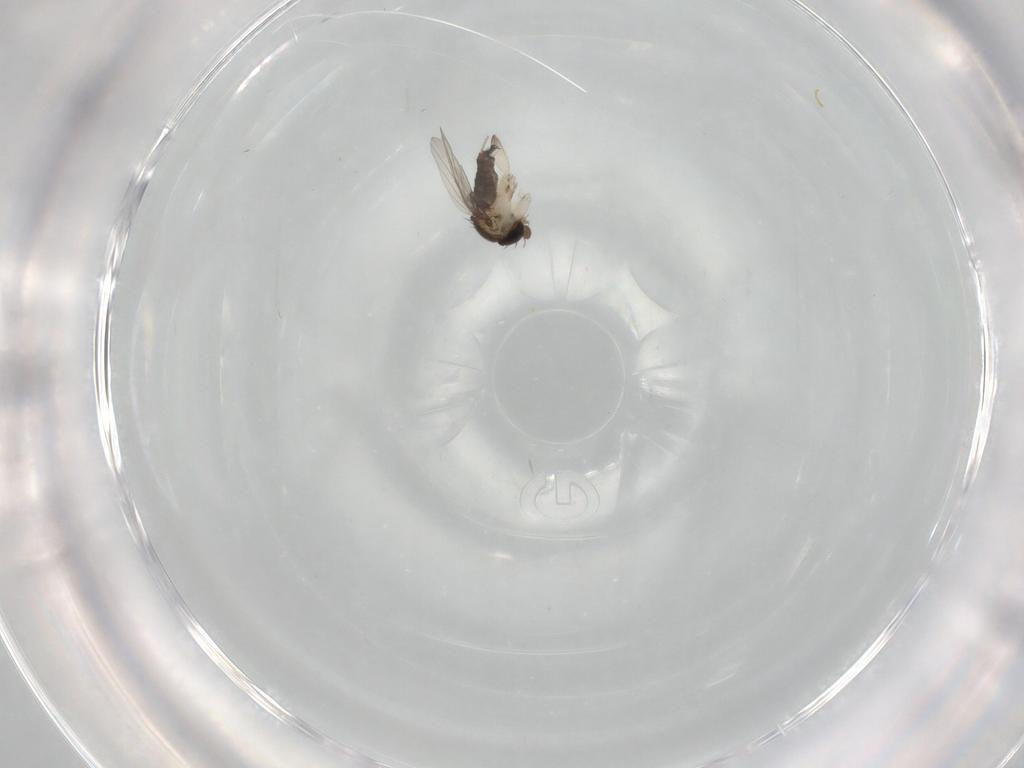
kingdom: Animalia
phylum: Arthropoda
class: Insecta
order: Diptera
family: Phoridae
